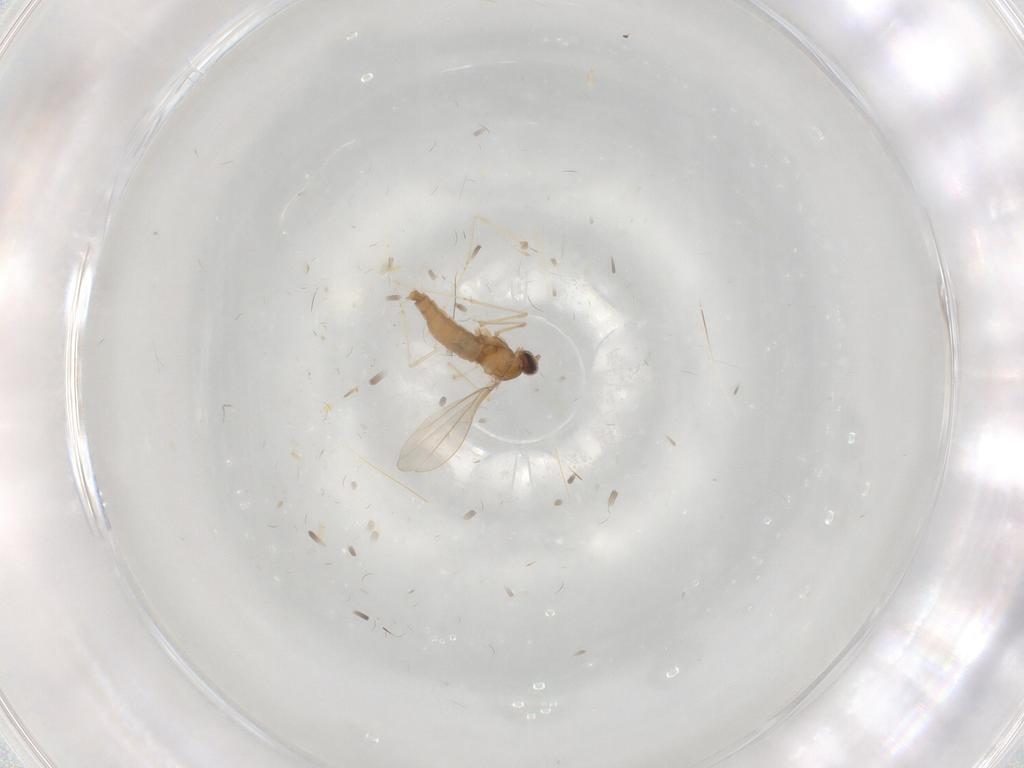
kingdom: Animalia
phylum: Arthropoda
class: Insecta
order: Diptera
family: Cecidomyiidae
